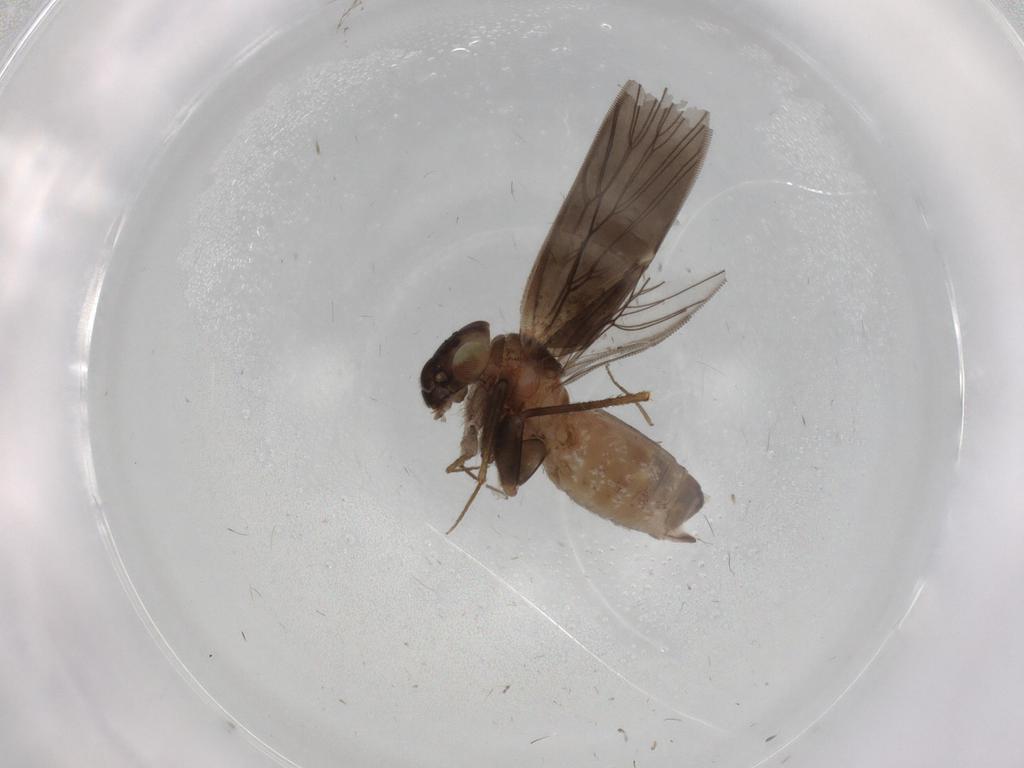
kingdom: Animalia
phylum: Arthropoda
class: Insecta
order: Psocodea
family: Lepidopsocidae
